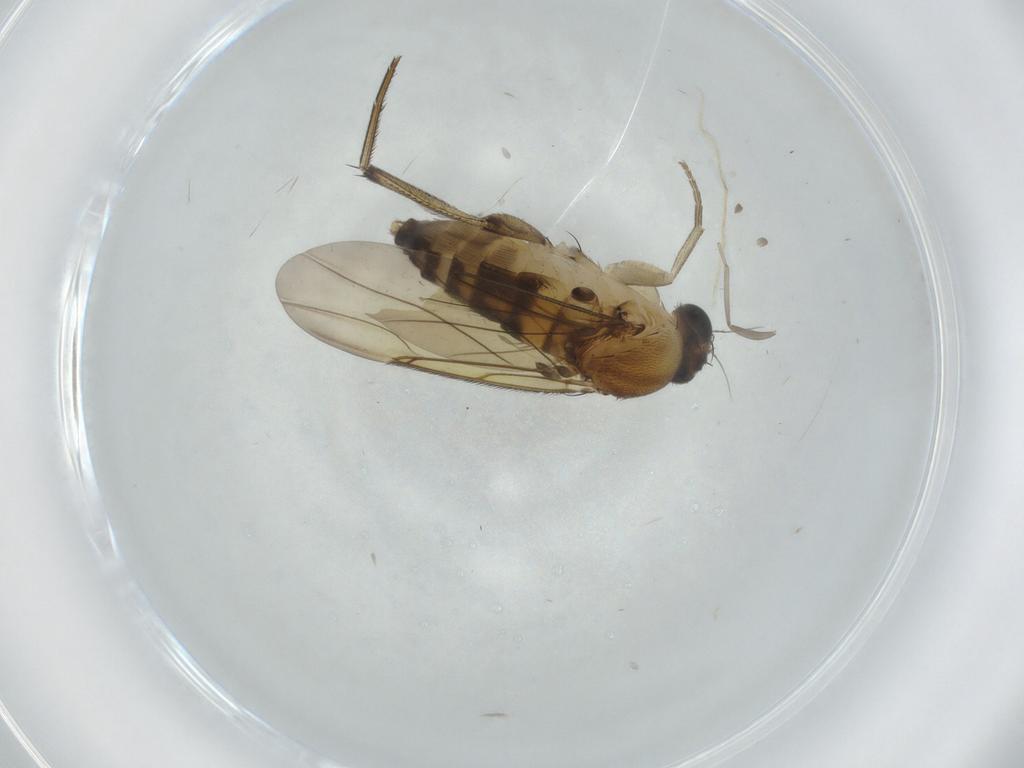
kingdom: Animalia
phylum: Arthropoda
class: Insecta
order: Diptera
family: Phoridae
